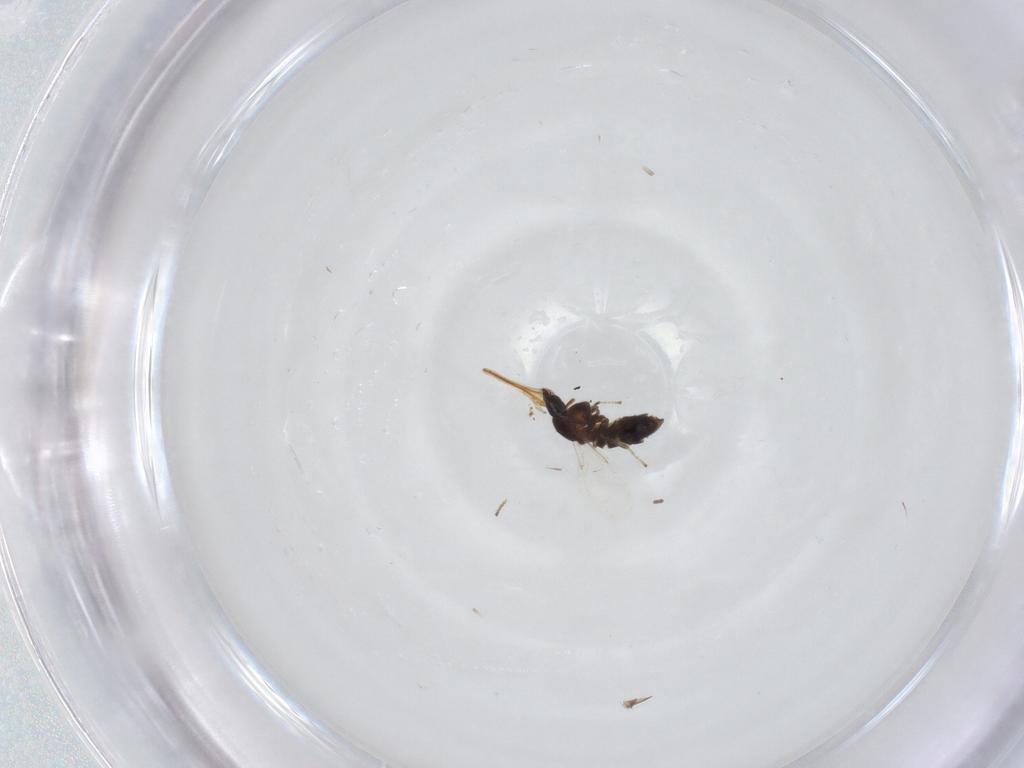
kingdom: Animalia
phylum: Arthropoda
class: Insecta
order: Diptera
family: Scatopsidae
